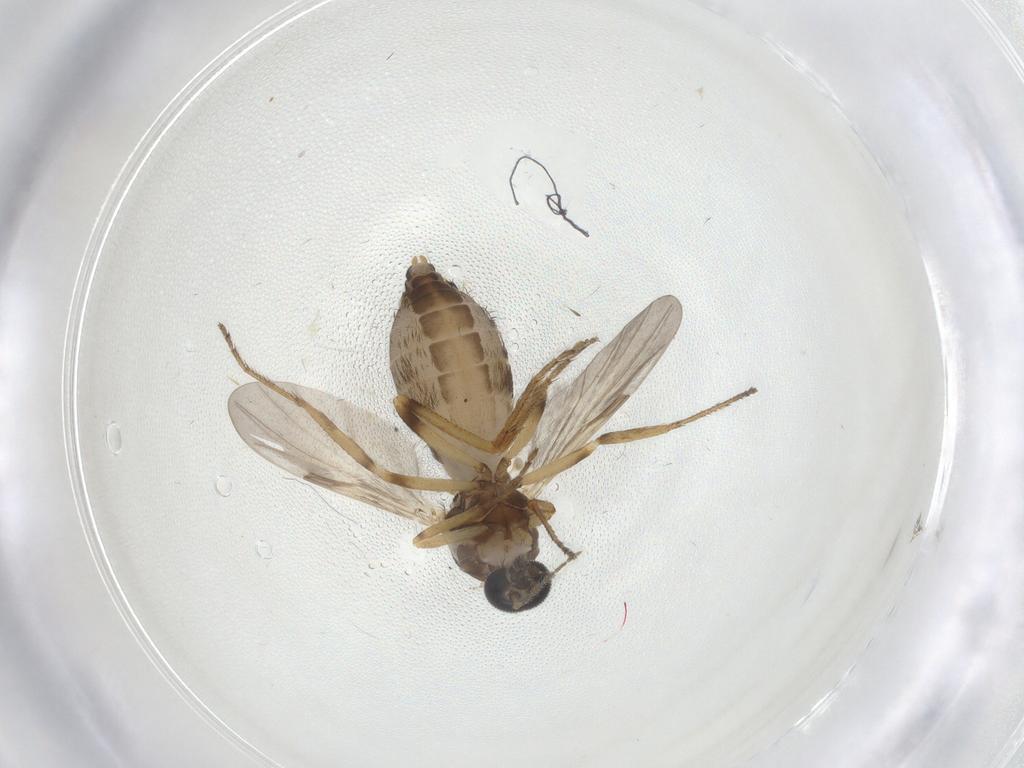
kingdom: Animalia
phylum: Arthropoda
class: Insecta
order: Diptera
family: Ceratopogonidae
